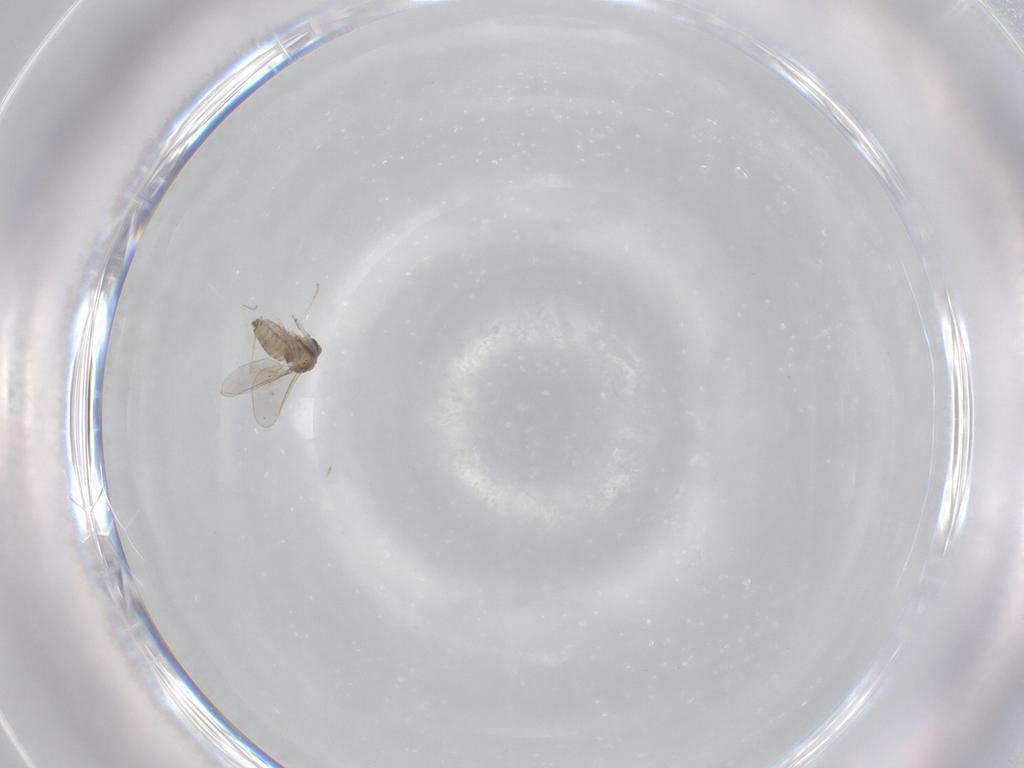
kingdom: Animalia
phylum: Arthropoda
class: Insecta
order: Diptera
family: Cecidomyiidae
